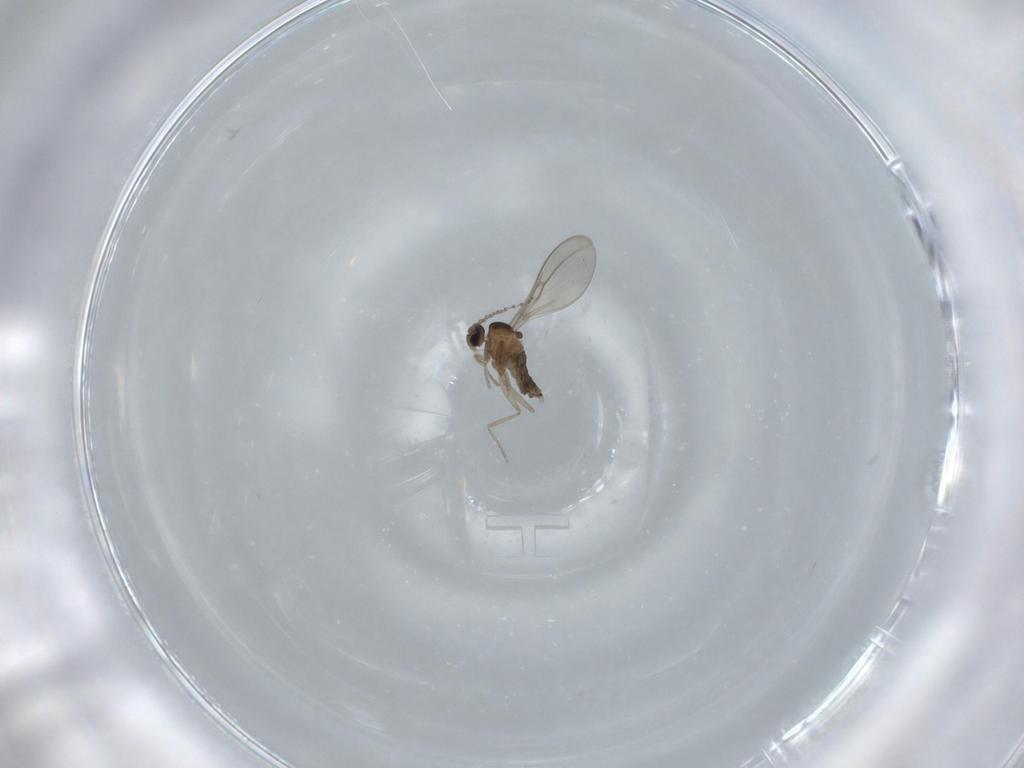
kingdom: Animalia
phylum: Arthropoda
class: Insecta
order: Diptera
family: Cecidomyiidae
